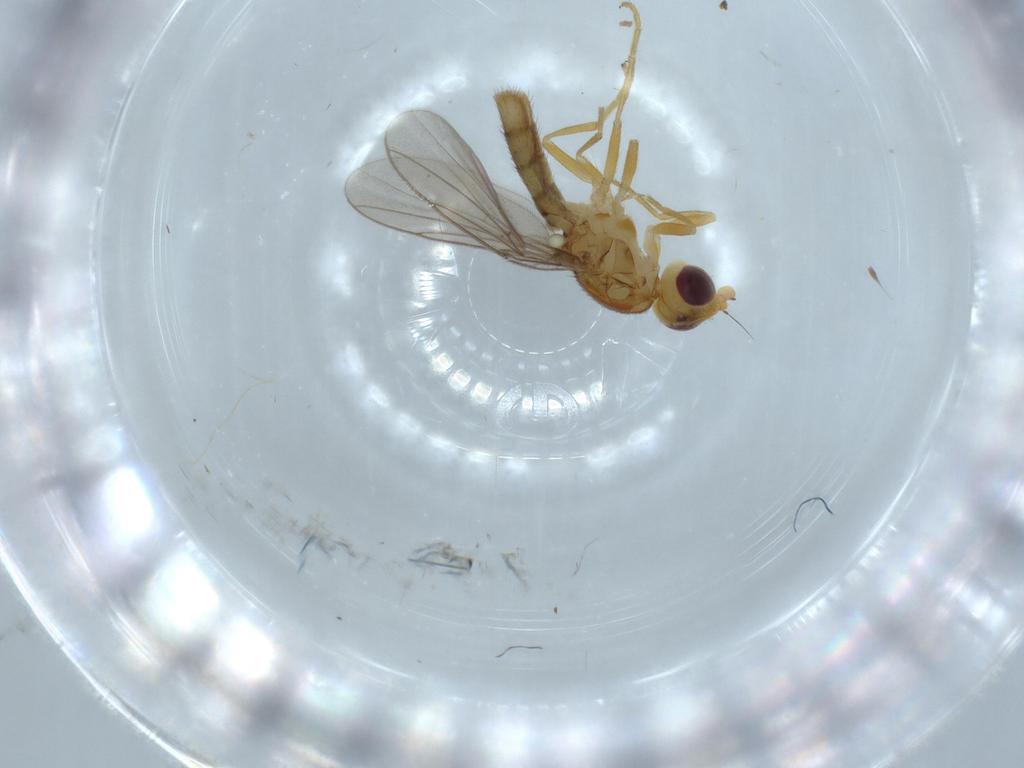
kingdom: Animalia
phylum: Arthropoda
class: Insecta
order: Diptera
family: Chloropidae
